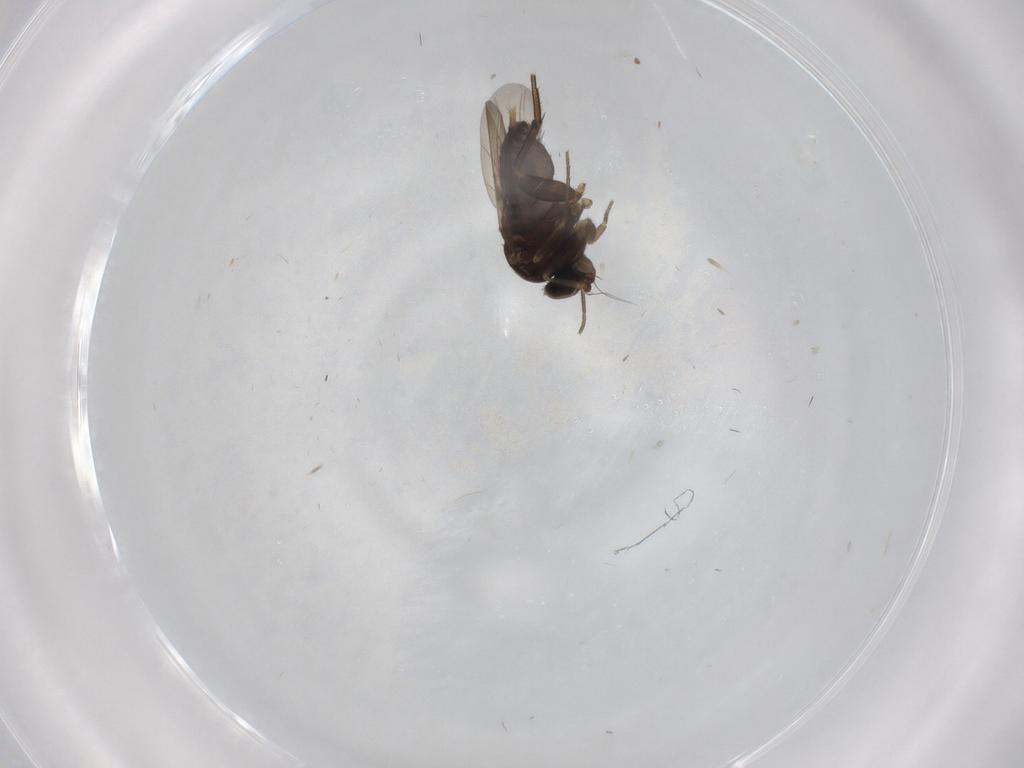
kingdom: Animalia
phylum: Arthropoda
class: Insecta
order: Diptera
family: Phoridae
